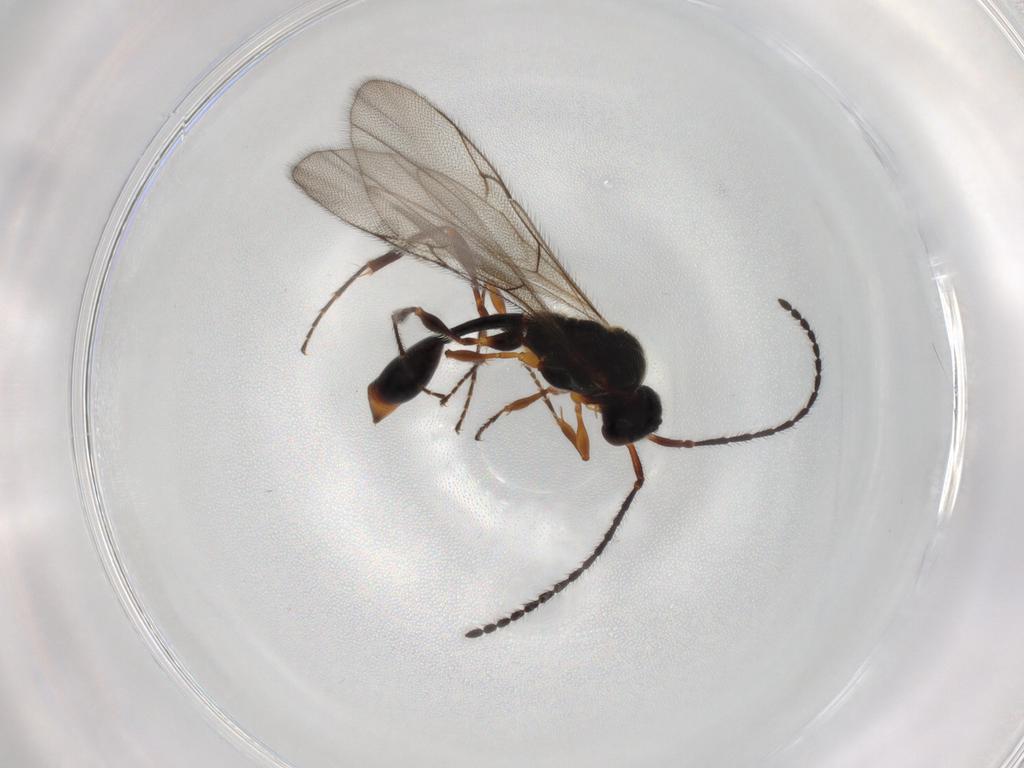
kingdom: Animalia
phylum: Arthropoda
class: Insecta
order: Hymenoptera
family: Diapriidae
